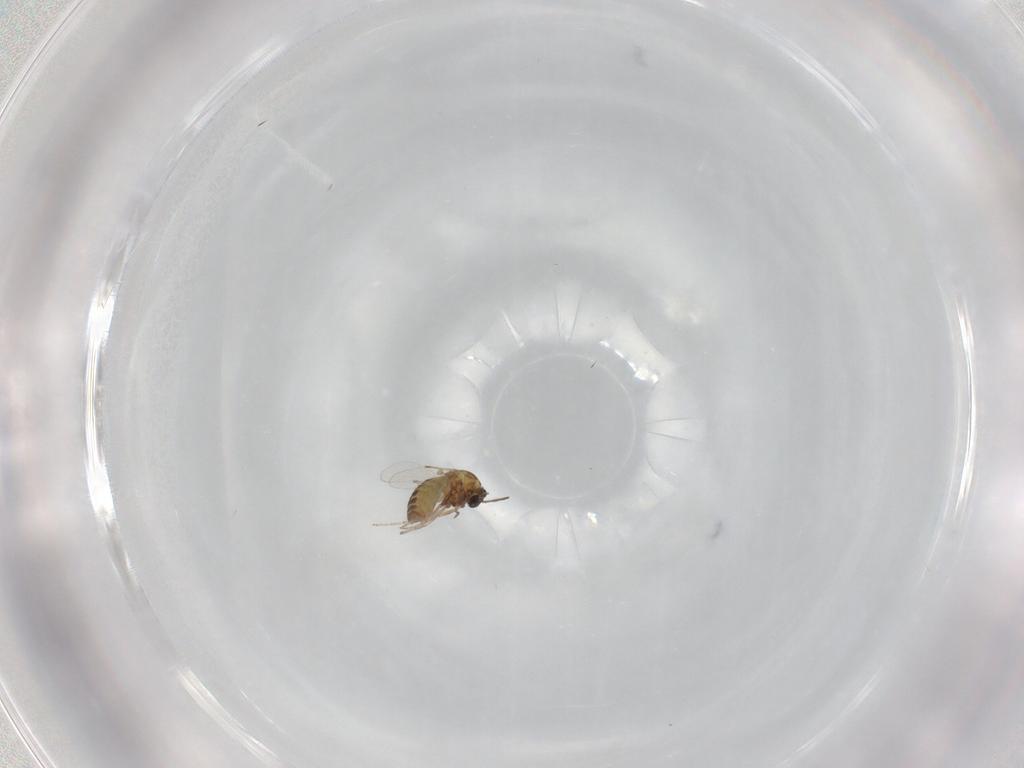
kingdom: Animalia
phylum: Arthropoda
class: Insecta
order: Diptera
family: Ceratopogonidae
